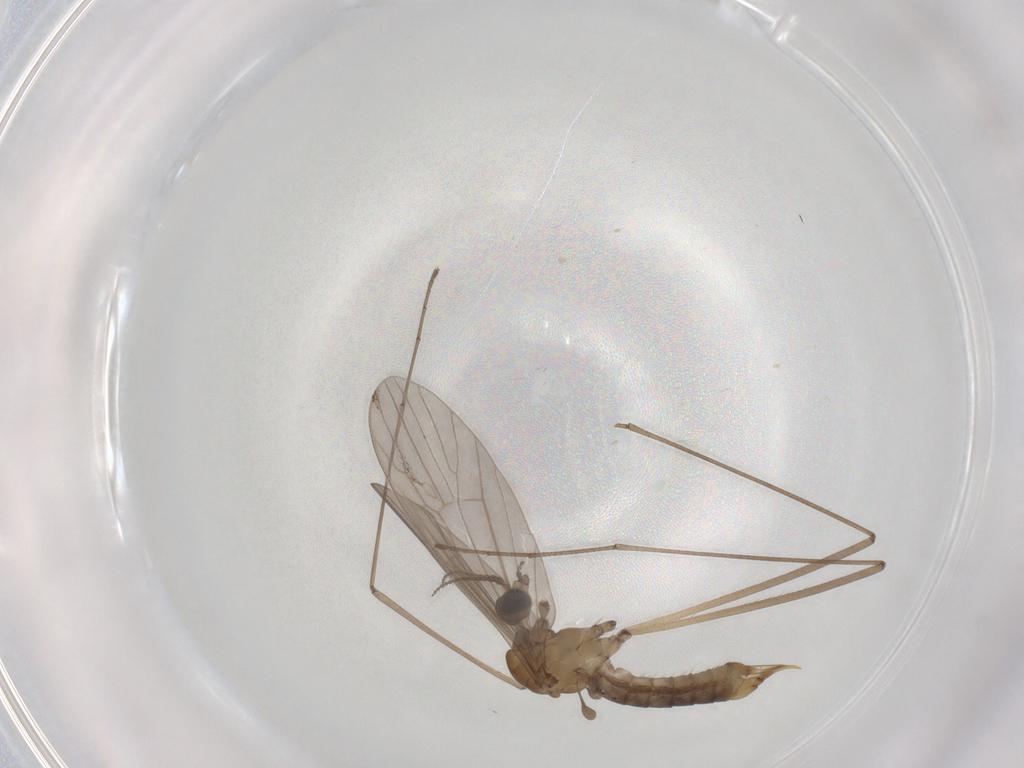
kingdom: Animalia
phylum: Arthropoda
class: Insecta
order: Diptera
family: Limoniidae
